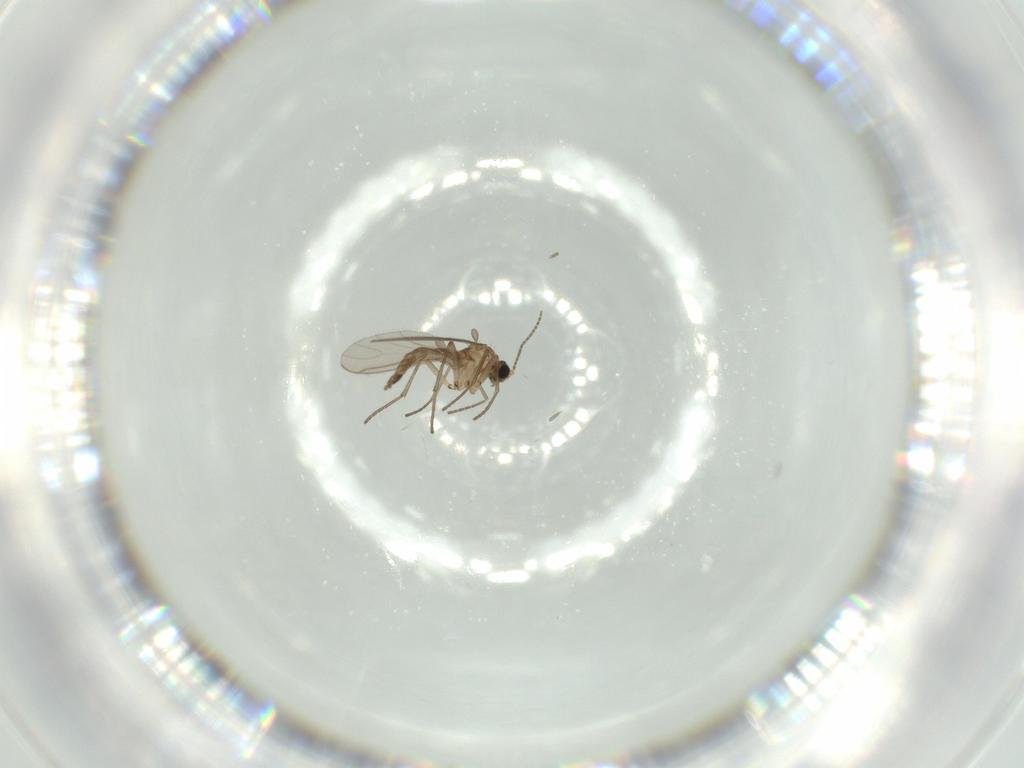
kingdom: Animalia
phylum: Arthropoda
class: Insecta
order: Diptera
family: Sciaridae
